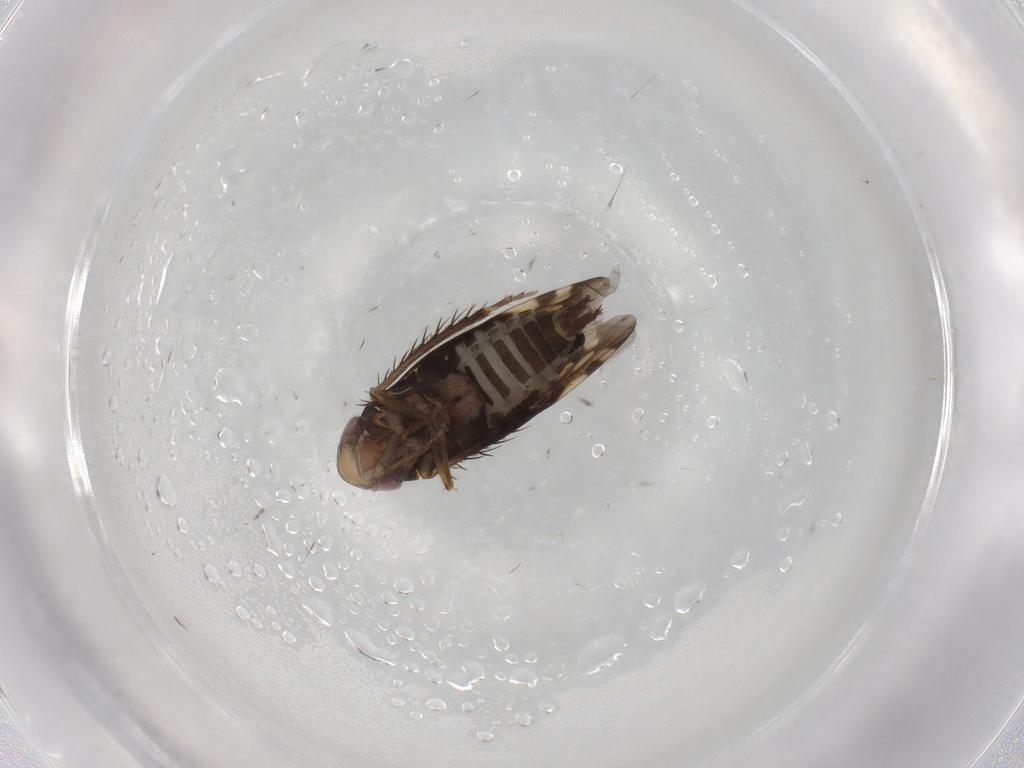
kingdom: Animalia
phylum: Arthropoda
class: Insecta
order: Hemiptera
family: Cicadellidae
